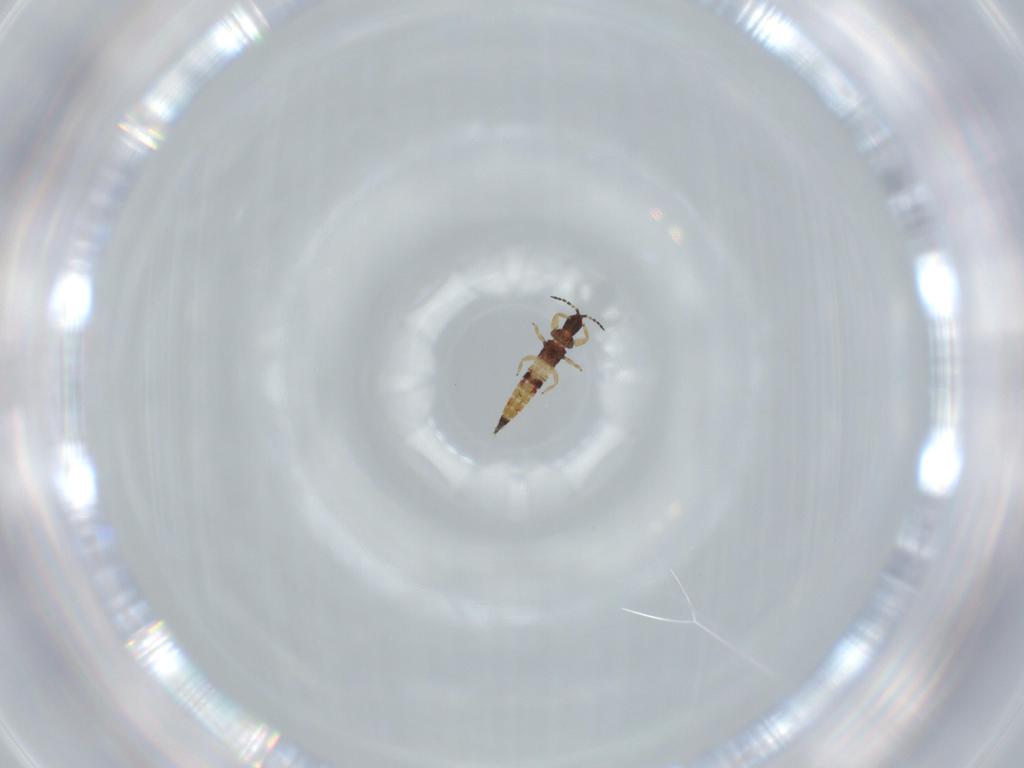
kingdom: Animalia
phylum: Arthropoda
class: Insecta
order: Thysanoptera
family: Phlaeothripidae
